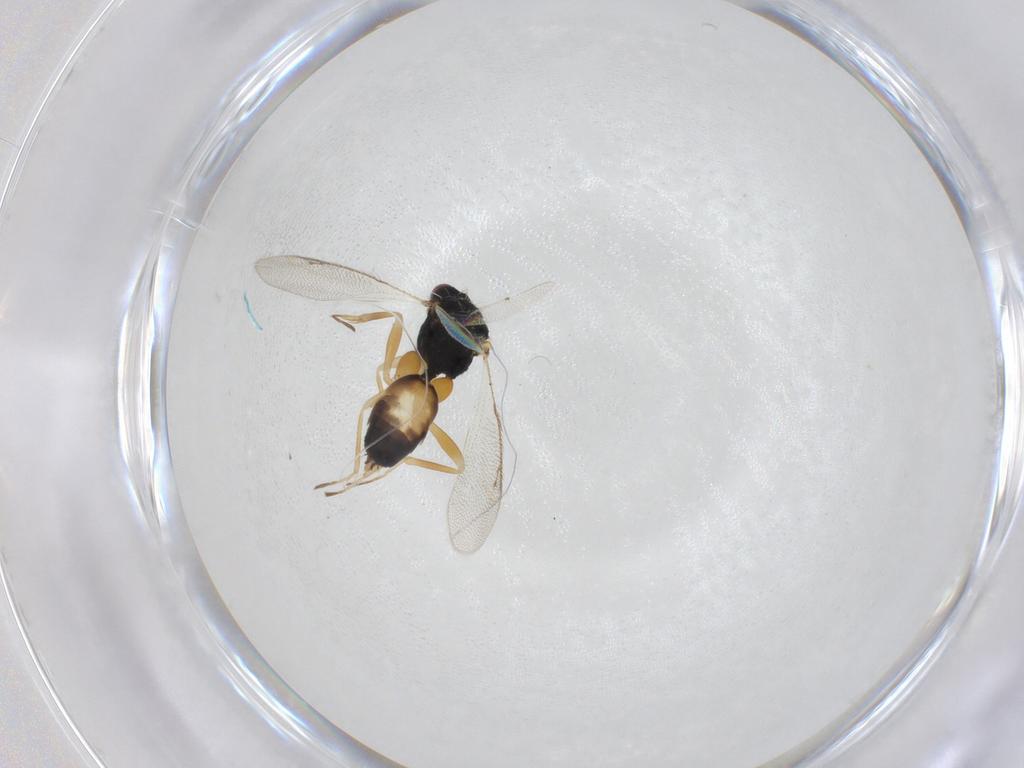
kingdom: Animalia
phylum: Arthropoda
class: Insecta
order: Hymenoptera
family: Eulophidae
